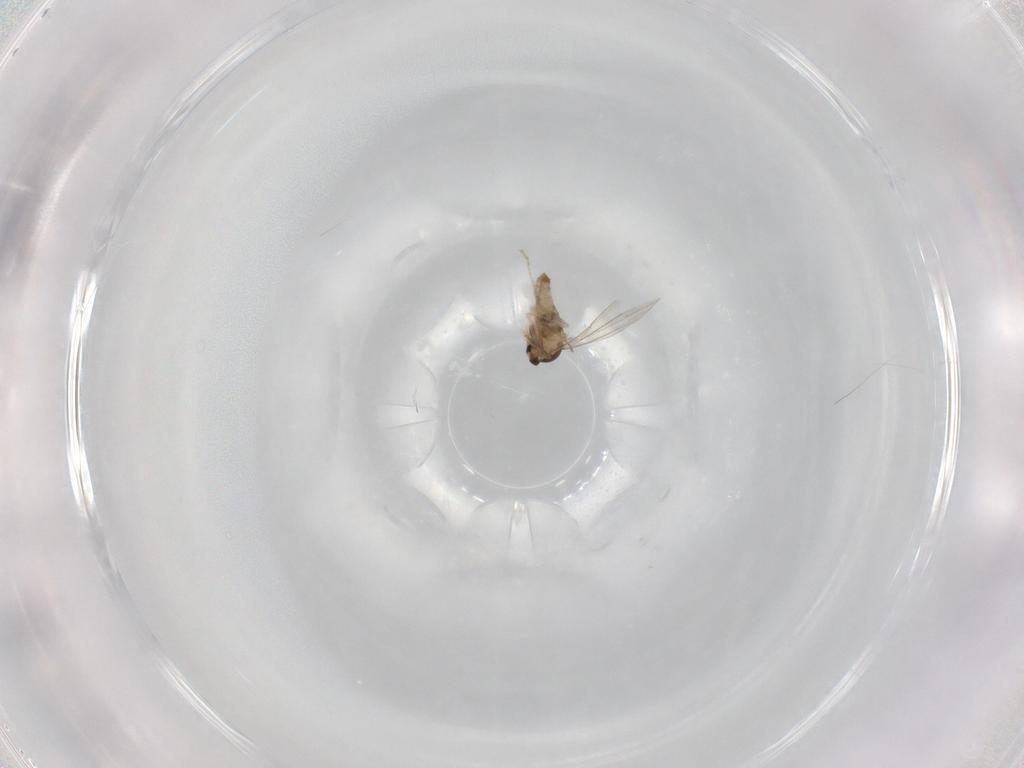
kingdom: Animalia
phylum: Arthropoda
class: Insecta
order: Diptera
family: Cecidomyiidae
